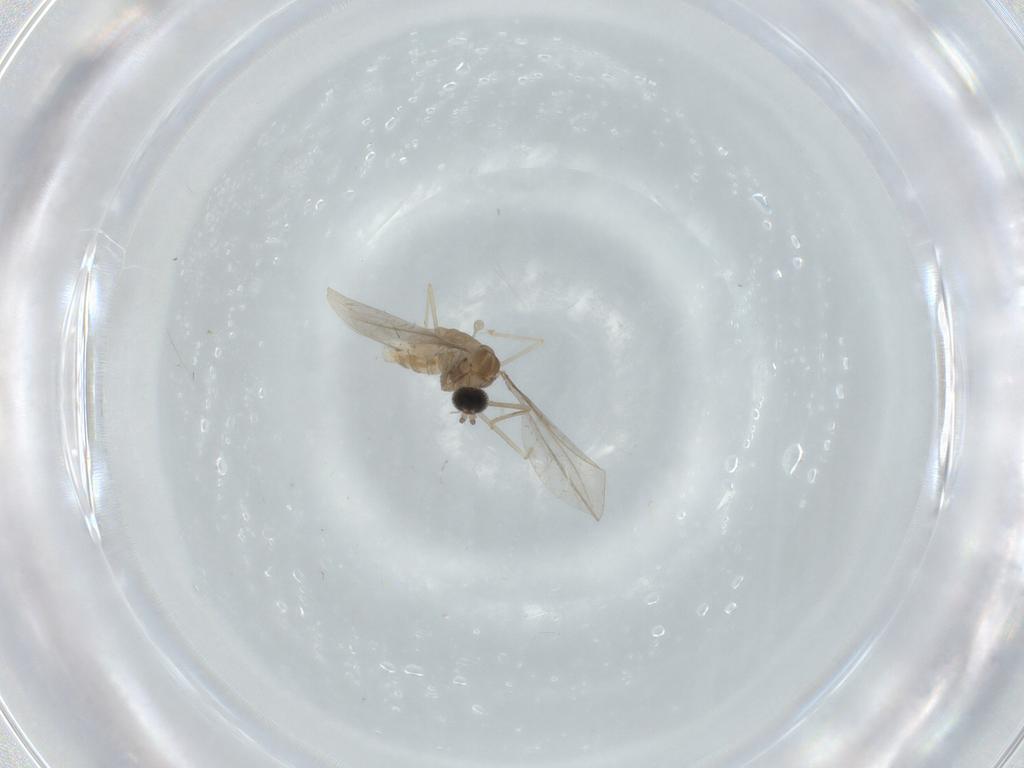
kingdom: Animalia
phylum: Arthropoda
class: Insecta
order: Diptera
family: Cecidomyiidae
